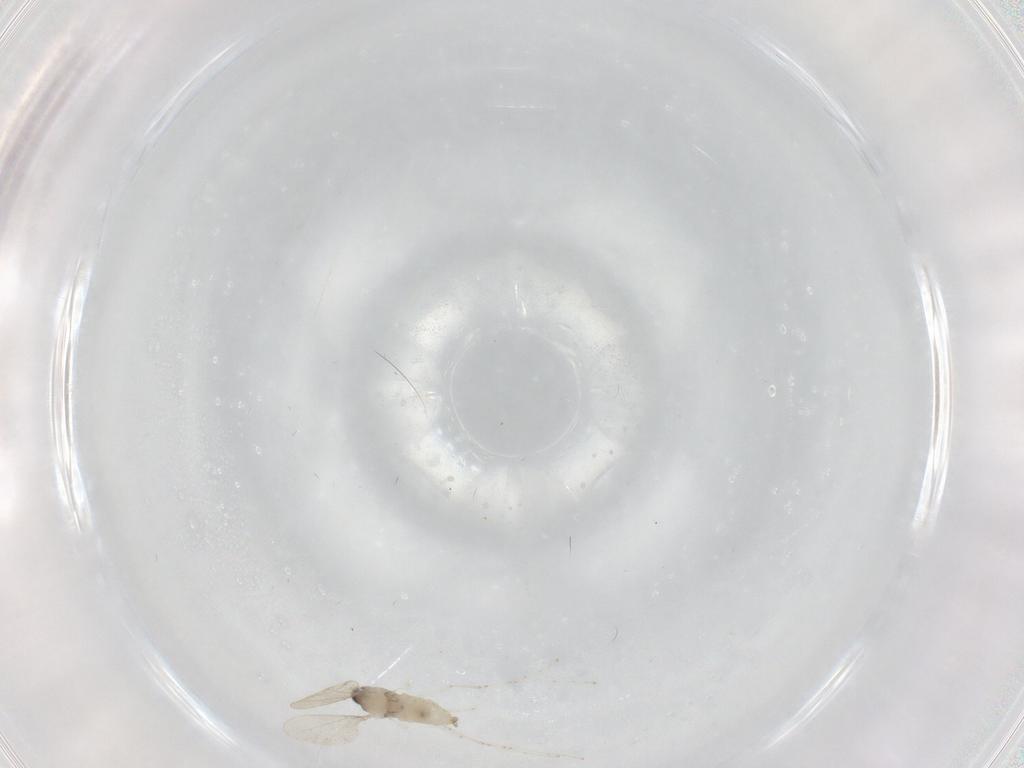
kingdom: Animalia
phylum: Arthropoda
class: Insecta
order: Diptera
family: Cecidomyiidae
